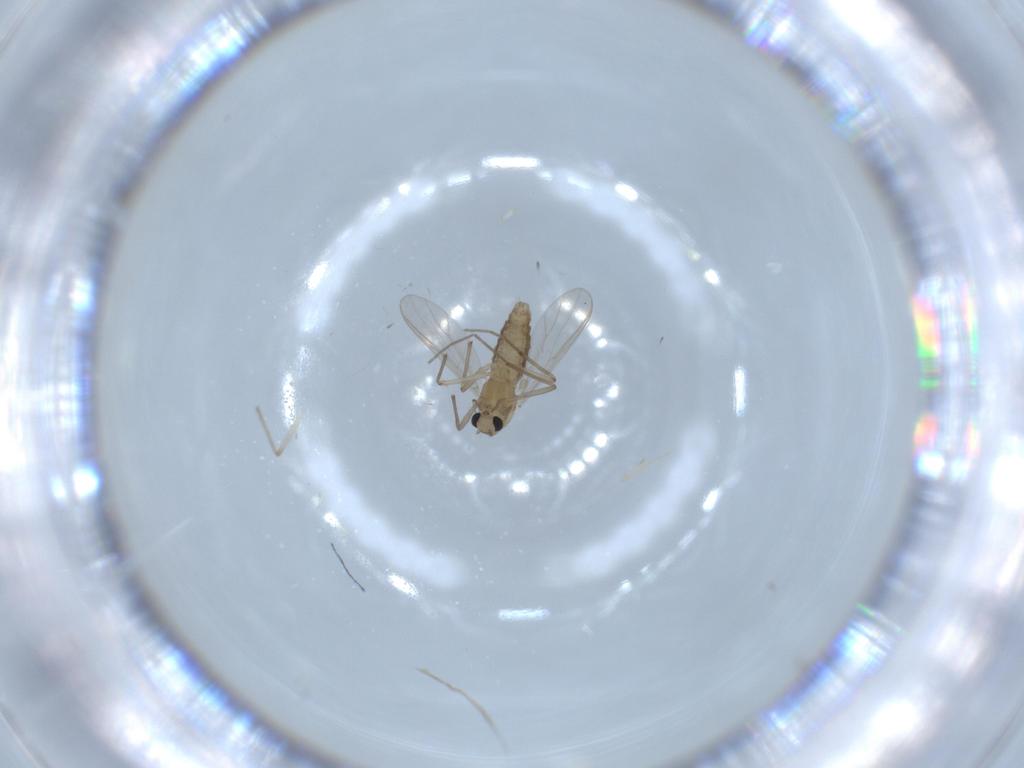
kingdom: Animalia
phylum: Arthropoda
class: Insecta
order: Diptera
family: Chironomidae
